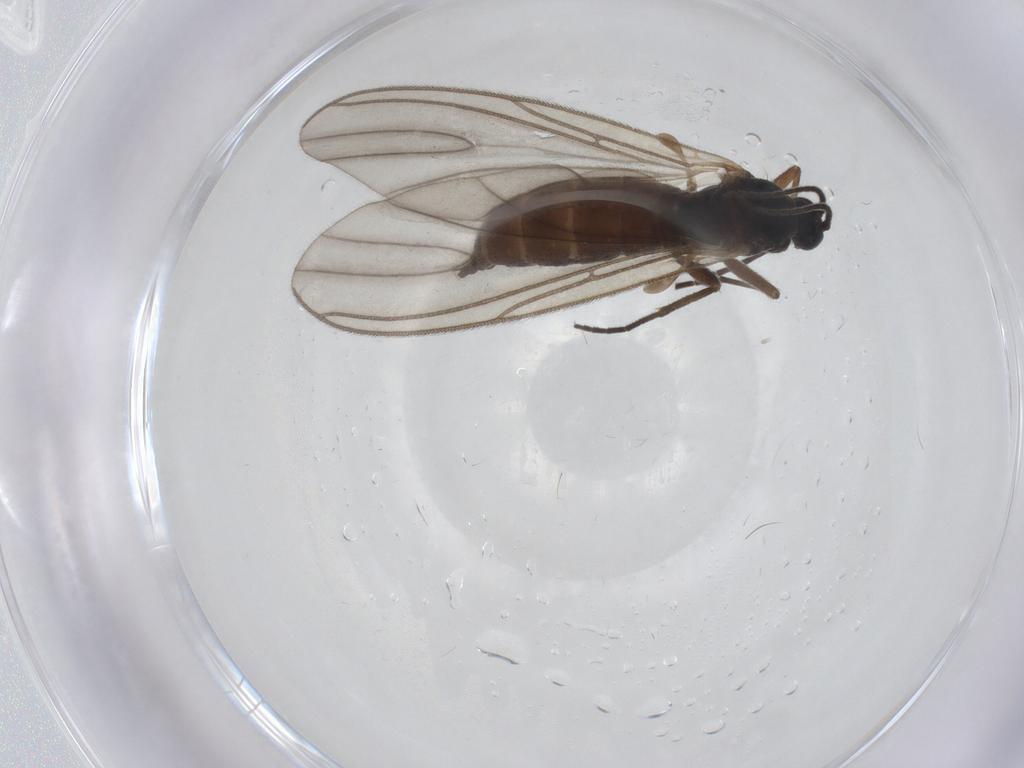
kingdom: Animalia
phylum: Arthropoda
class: Insecta
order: Diptera
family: Sciaridae
